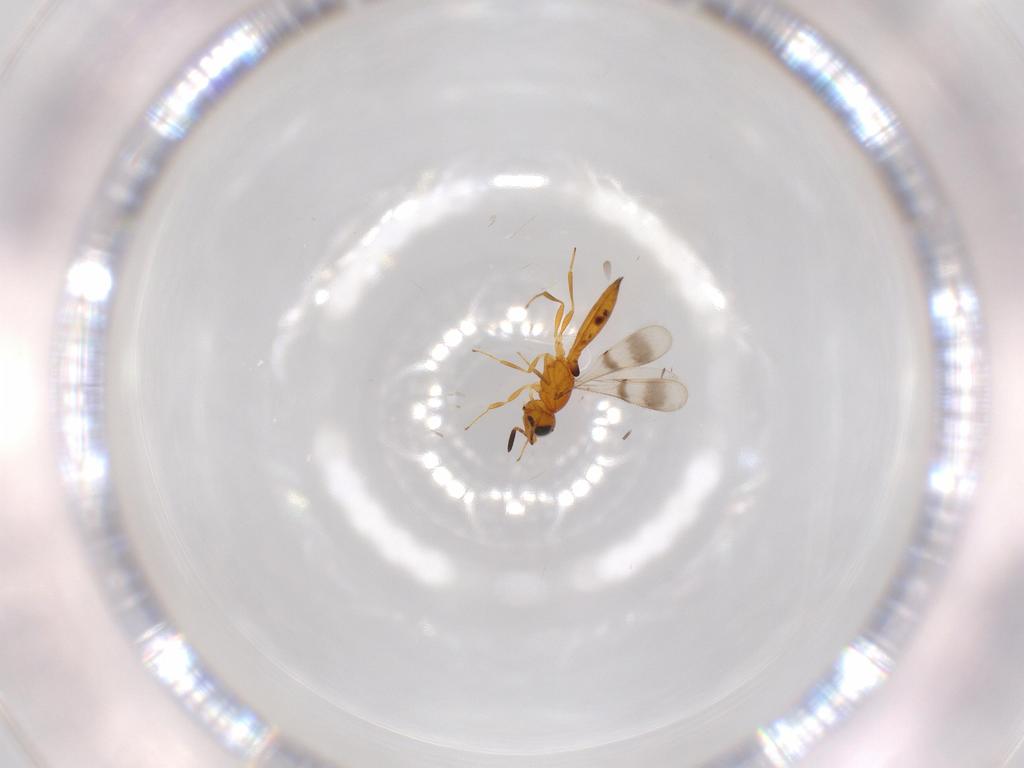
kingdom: Animalia
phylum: Arthropoda
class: Insecta
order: Hymenoptera
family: Scelionidae
